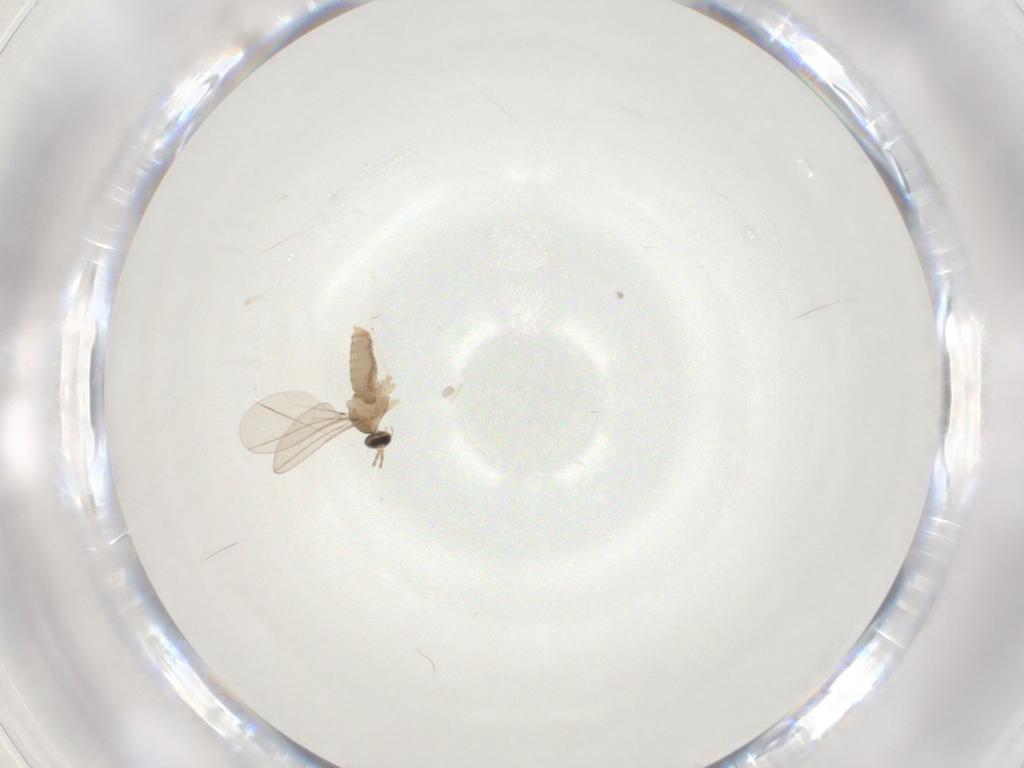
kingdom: Animalia
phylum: Arthropoda
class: Insecta
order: Diptera
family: Cecidomyiidae
